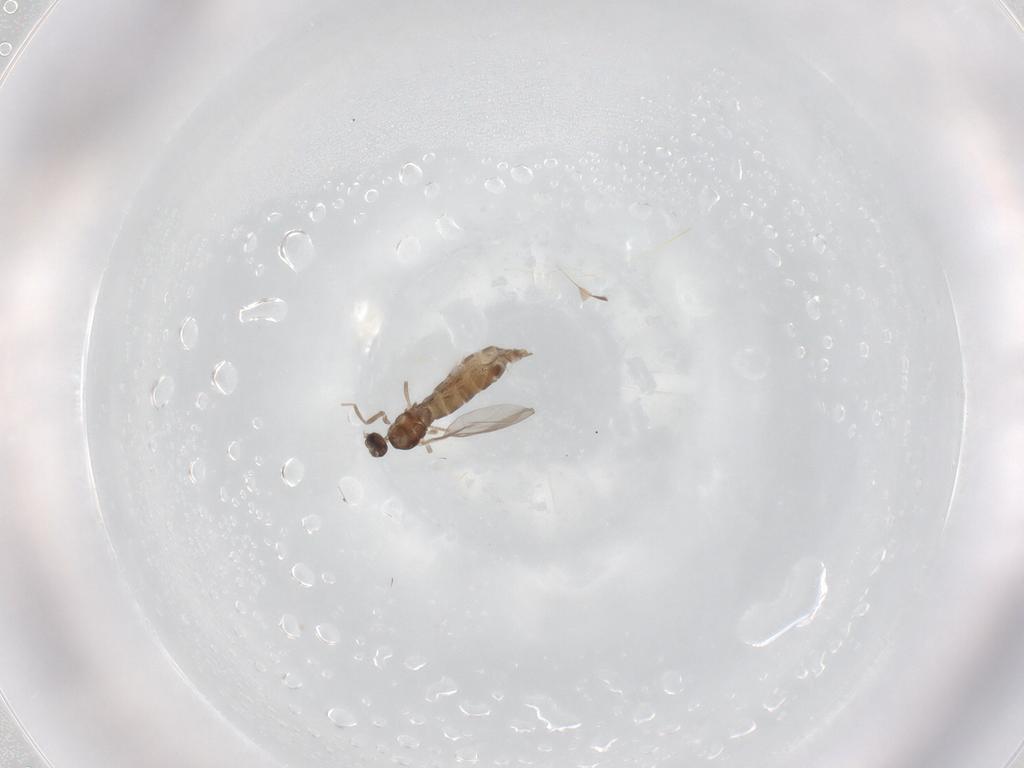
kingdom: Animalia
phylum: Arthropoda
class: Insecta
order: Diptera
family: Cecidomyiidae
